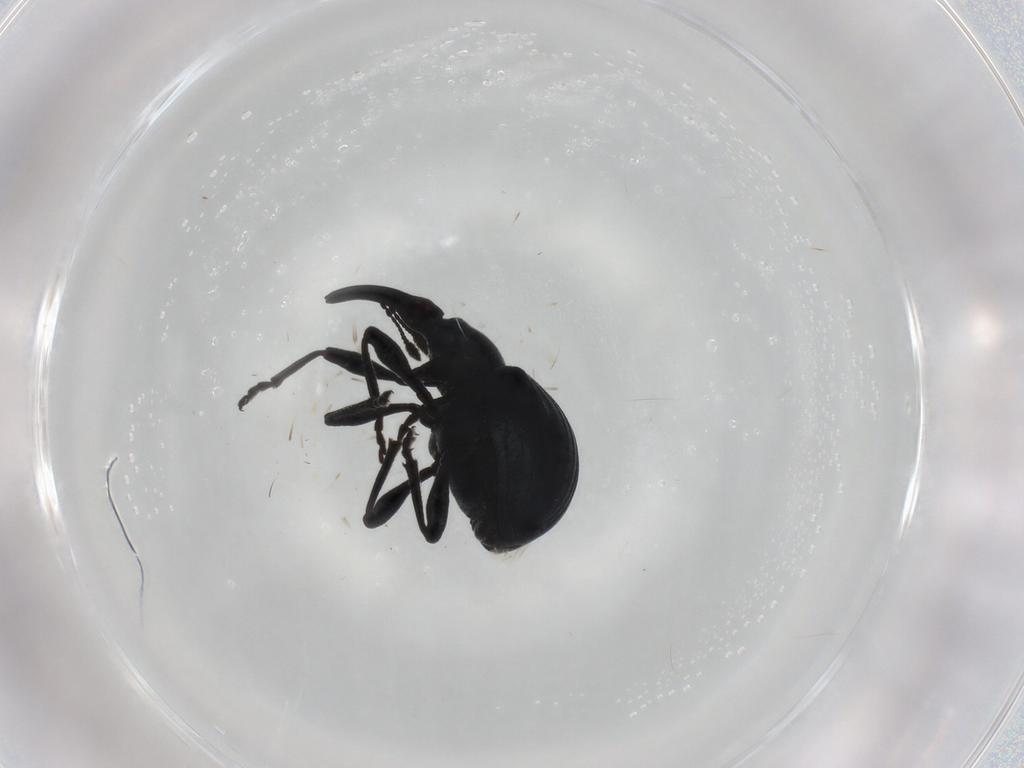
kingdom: Animalia
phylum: Arthropoda
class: Insecta
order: Coleoptera
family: Apionidae
